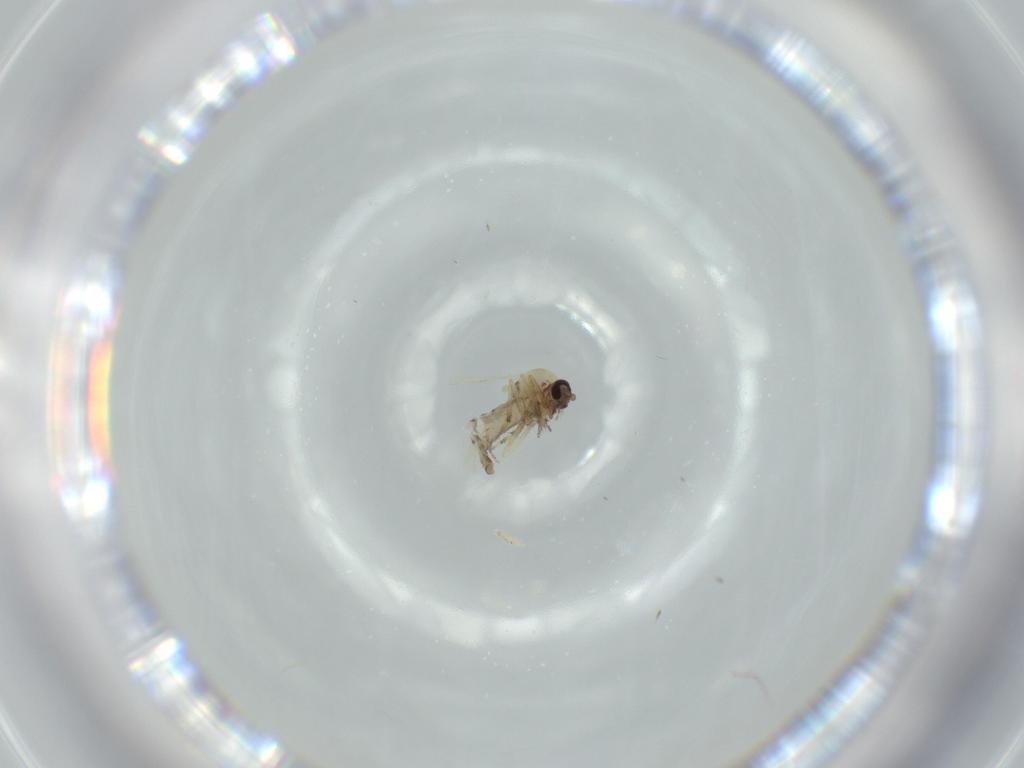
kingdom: Animalia
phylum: Arthropoda
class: Insecta
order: Diptera
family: Ceratopogonidae
